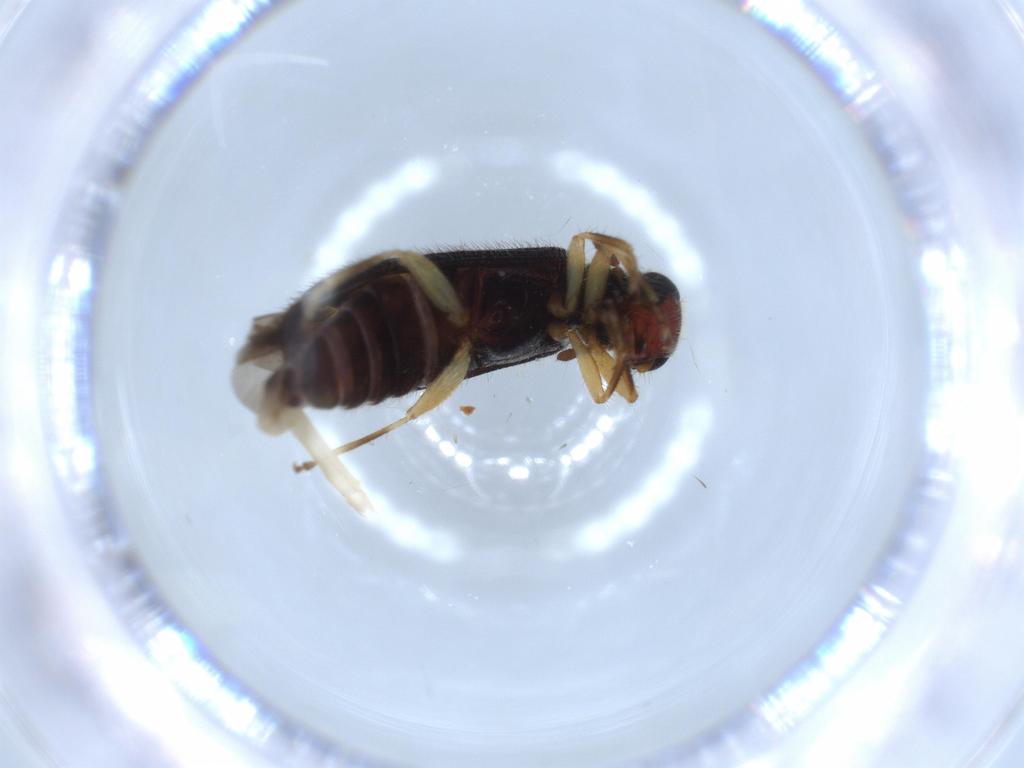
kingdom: Animalia
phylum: Arthropoda
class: Insecta
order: Coleoptera
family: Cleridae
